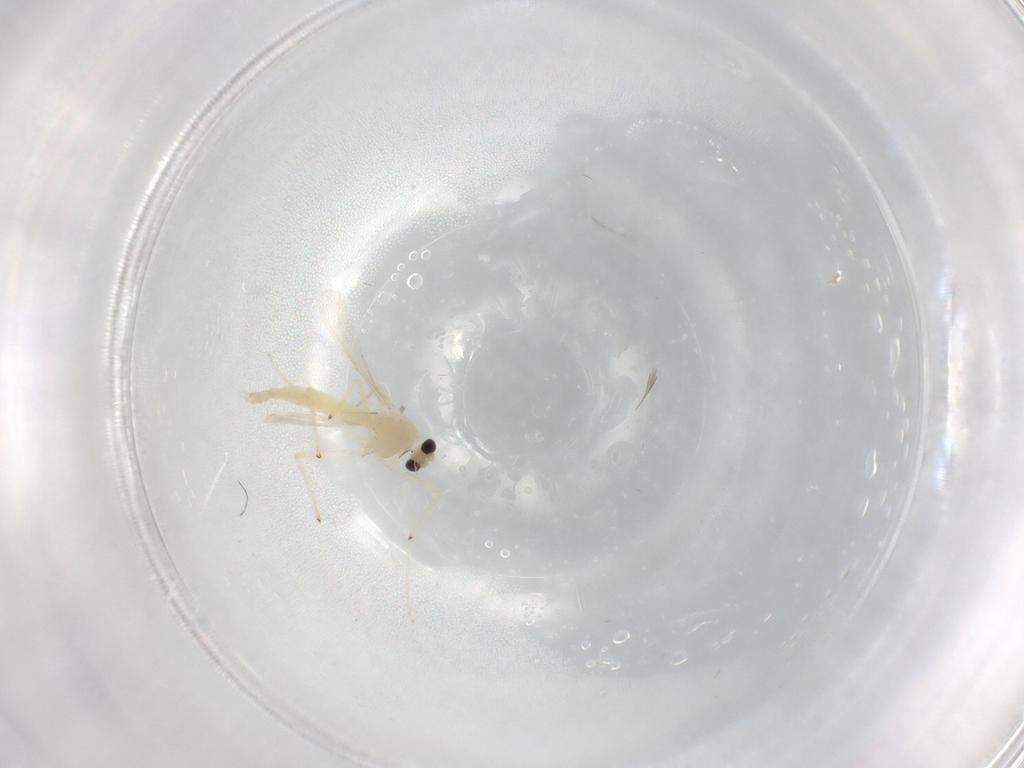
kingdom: Animalia
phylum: Arthropoda
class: Insecta
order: Diptera
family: Chironomidae
